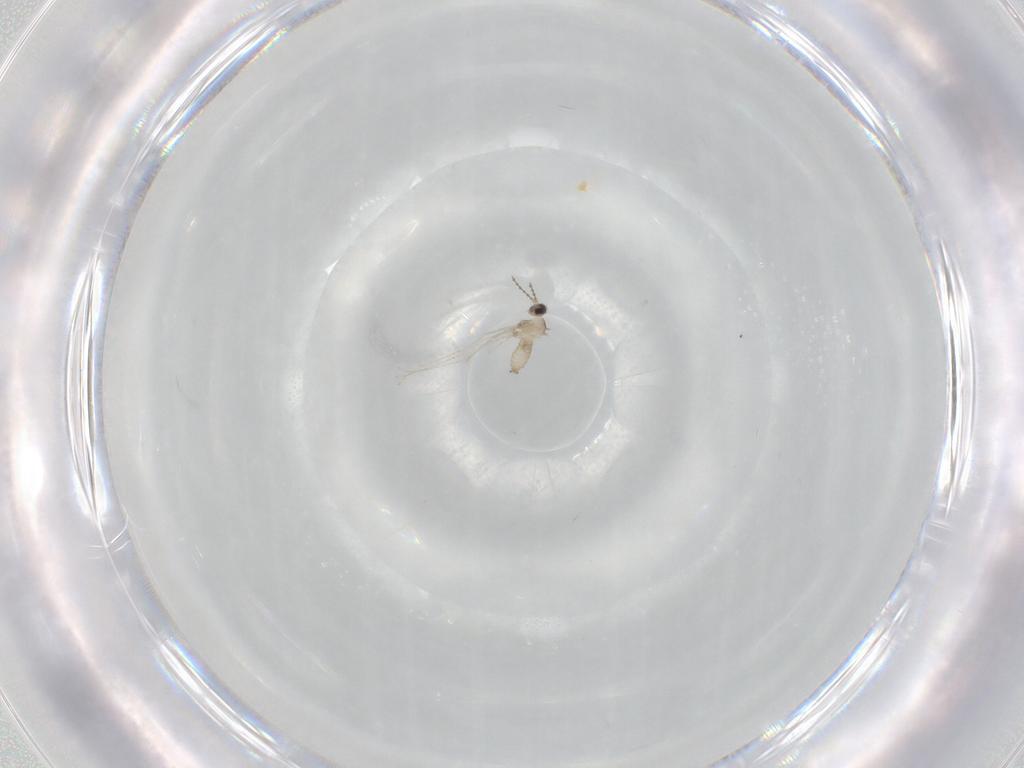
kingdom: Animalia
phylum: Arthropoda
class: Insecta
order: Diptera
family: Cecidomyiidae
